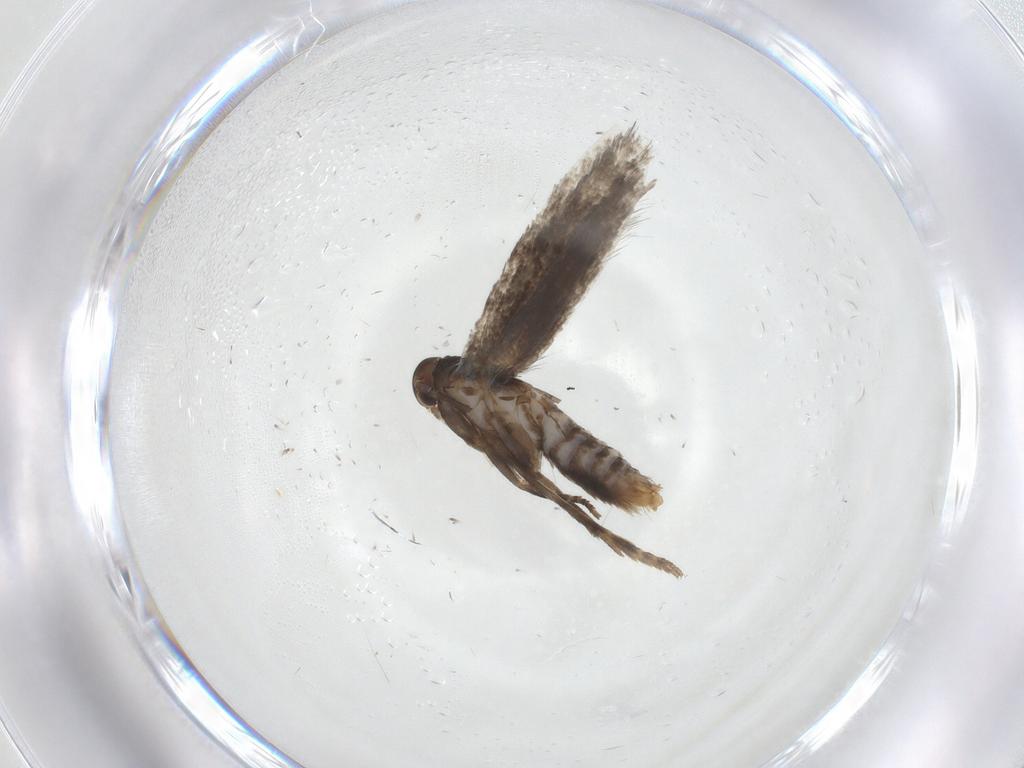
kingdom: Animalia
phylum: Arthropoda
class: Insecta
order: Lepidoptera
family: Elachistidae
